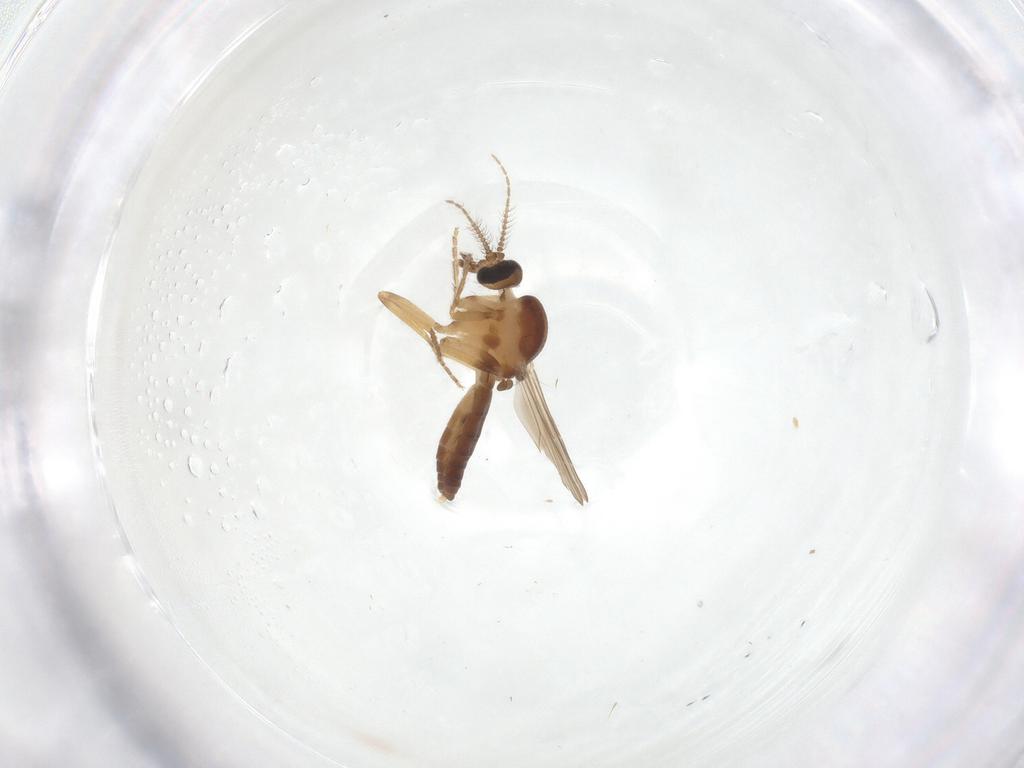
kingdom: Animalia
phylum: Arthropoda
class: Insecta
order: Diptera
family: Ceratopogonidae
